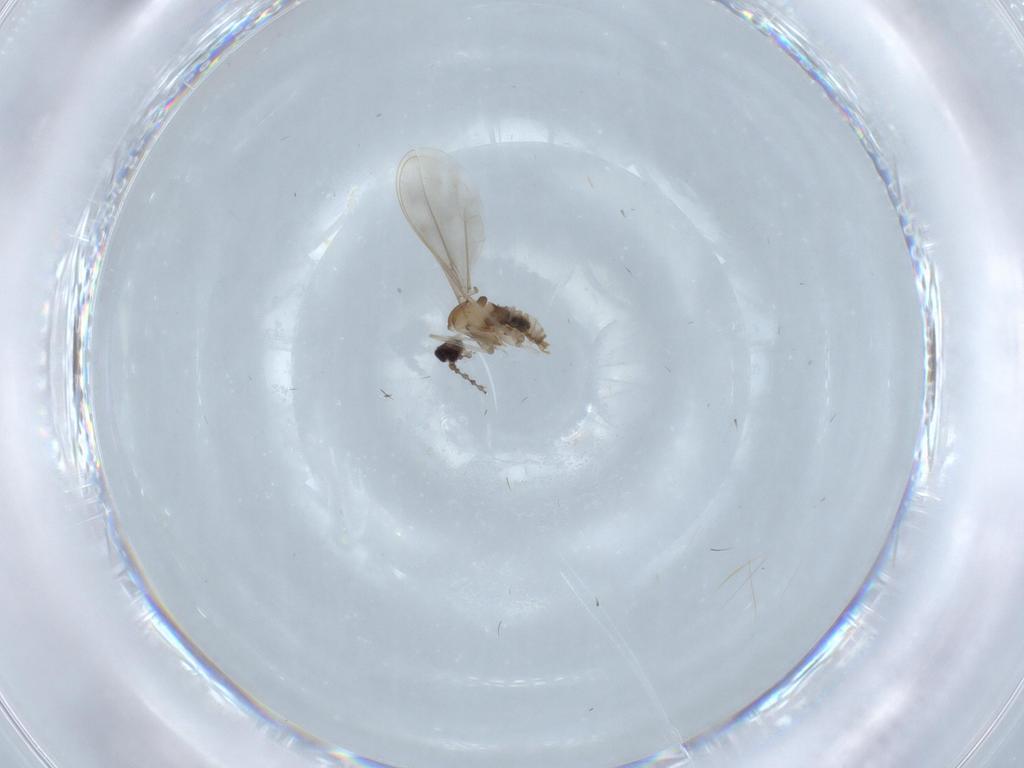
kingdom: Animalia
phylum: Arthropoda
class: Insecta
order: Diptera
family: Cecidomyiidae
